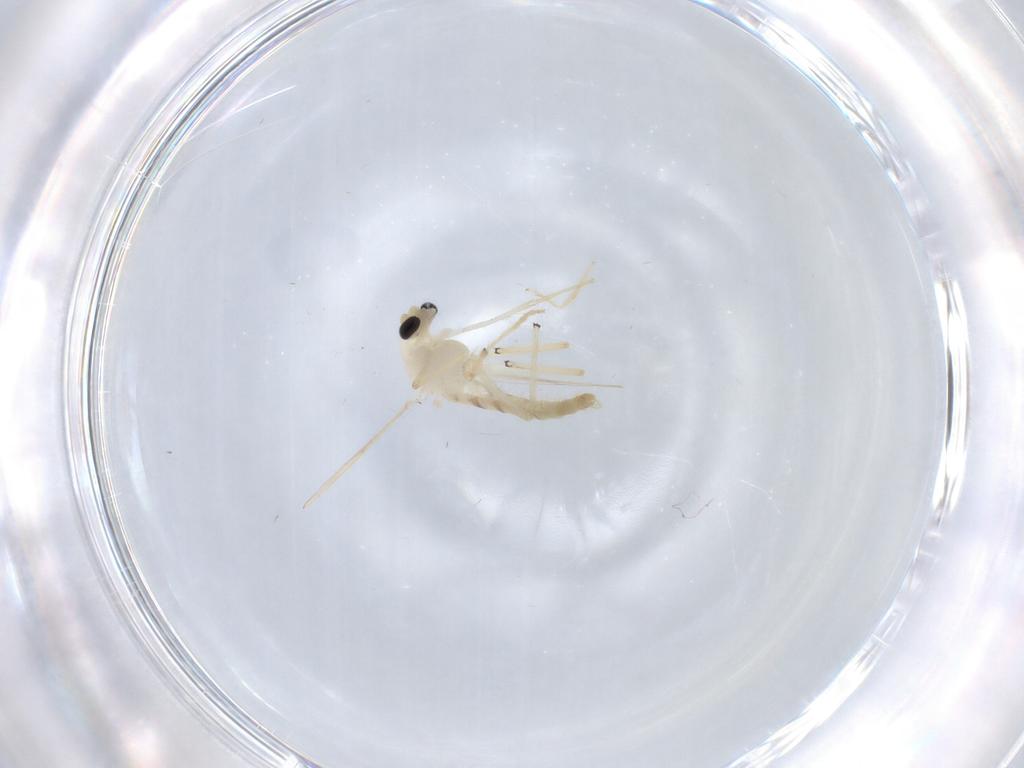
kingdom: Animalia
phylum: Arthropoda
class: Insecta
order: Diptera
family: Chironomidae
